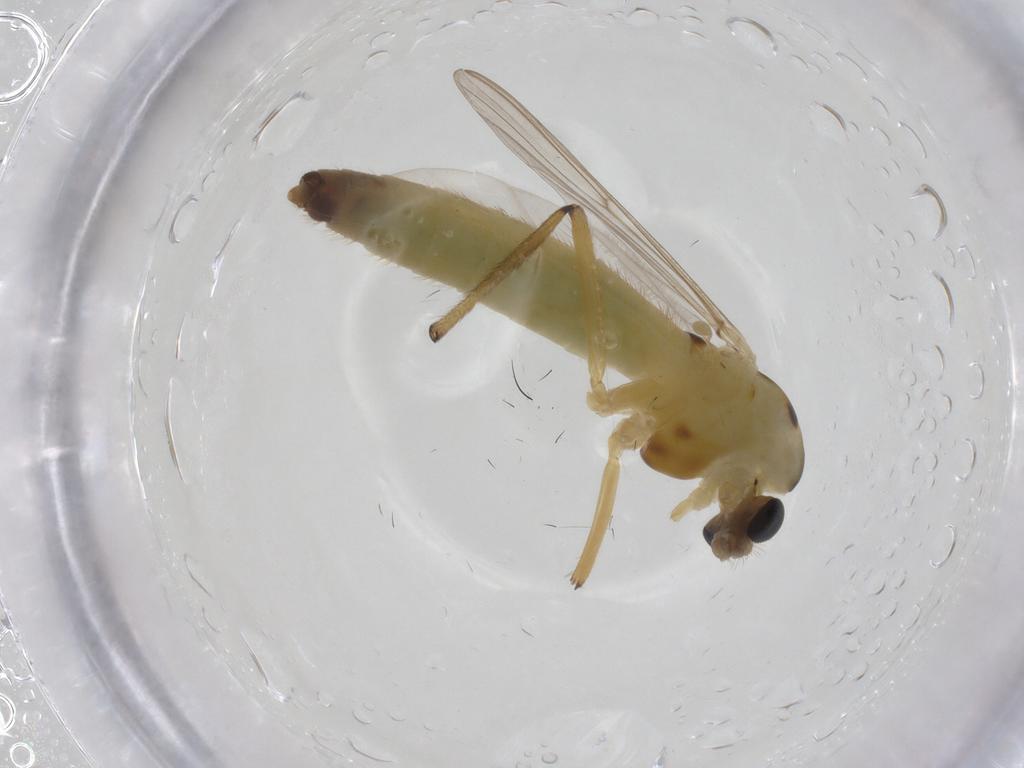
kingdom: Animalia
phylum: Arthropoda
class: Insecta
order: Diptera
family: Chironomidae
